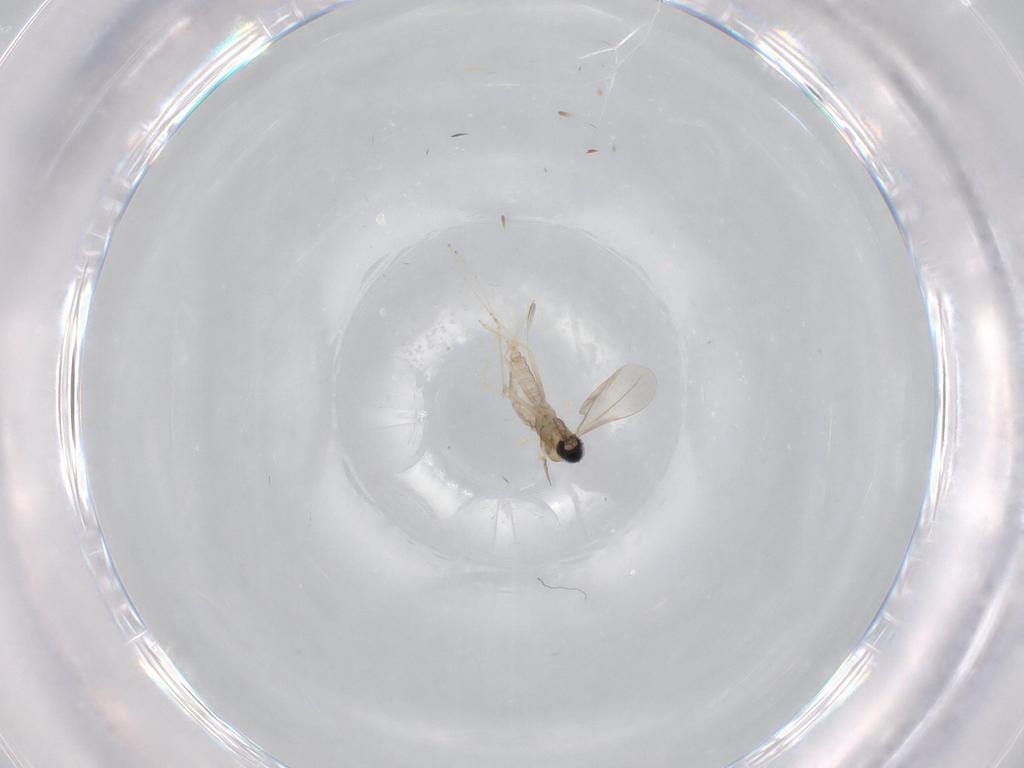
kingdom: Animalia
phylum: Arthropoda
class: Insecta
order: Diptera
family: Cecidomyiidae
